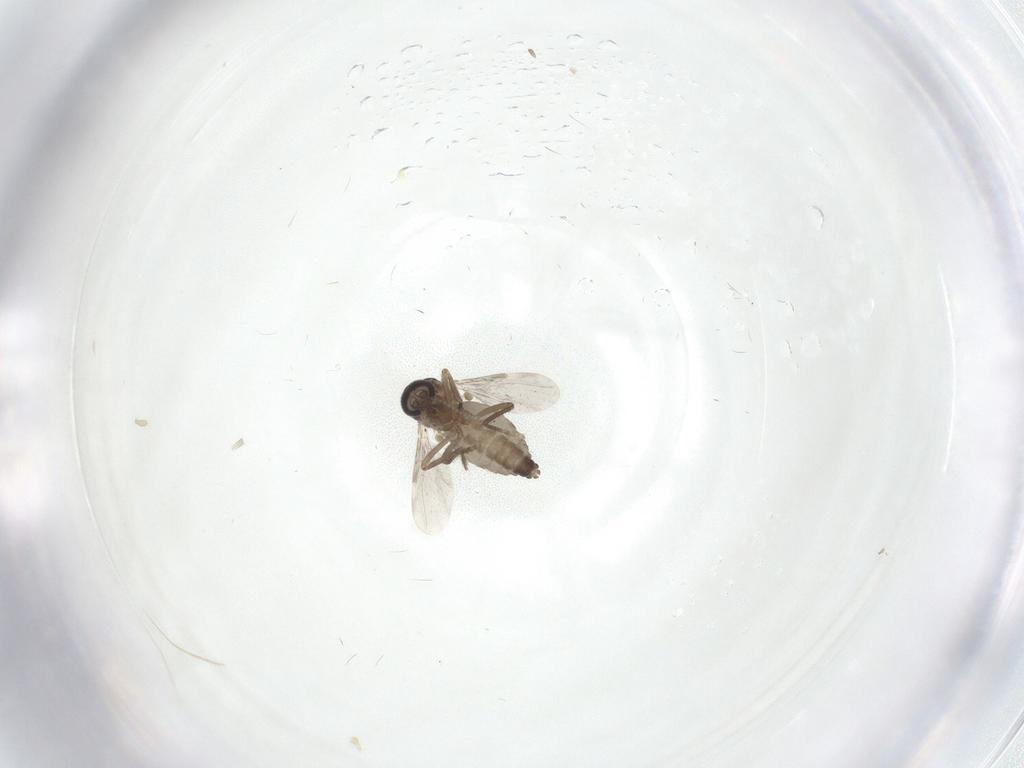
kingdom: Animalia
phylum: Arthropoda
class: Insecta
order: Diptera
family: Ceratopogonidae
